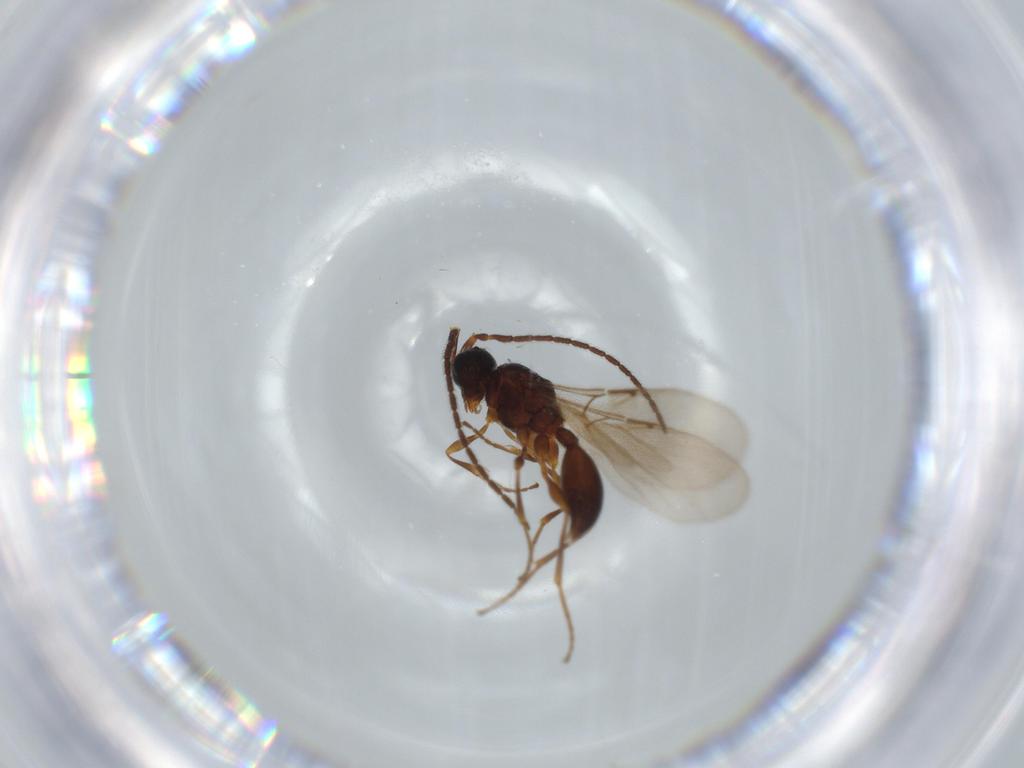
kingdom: Animalia
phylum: Arthropoda
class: Insecta
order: Hymenoptera
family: Proctotrupidae
